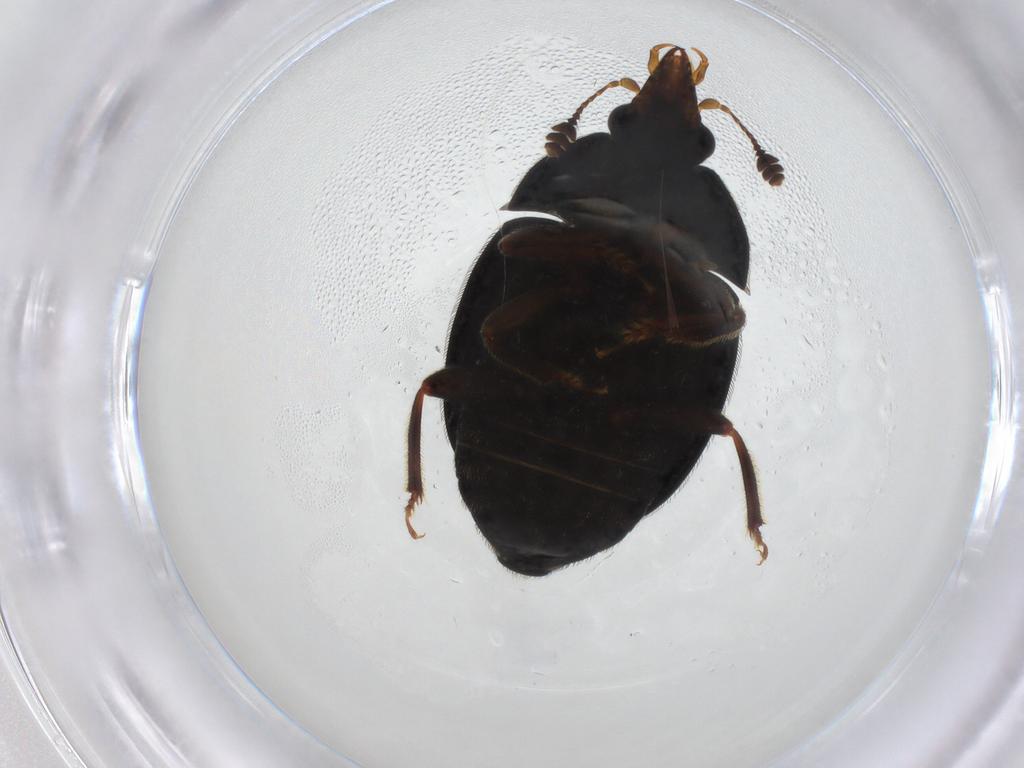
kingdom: Animalia
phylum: Arthropoda
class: Insecta
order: Coleoptera
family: Eucnemidae
